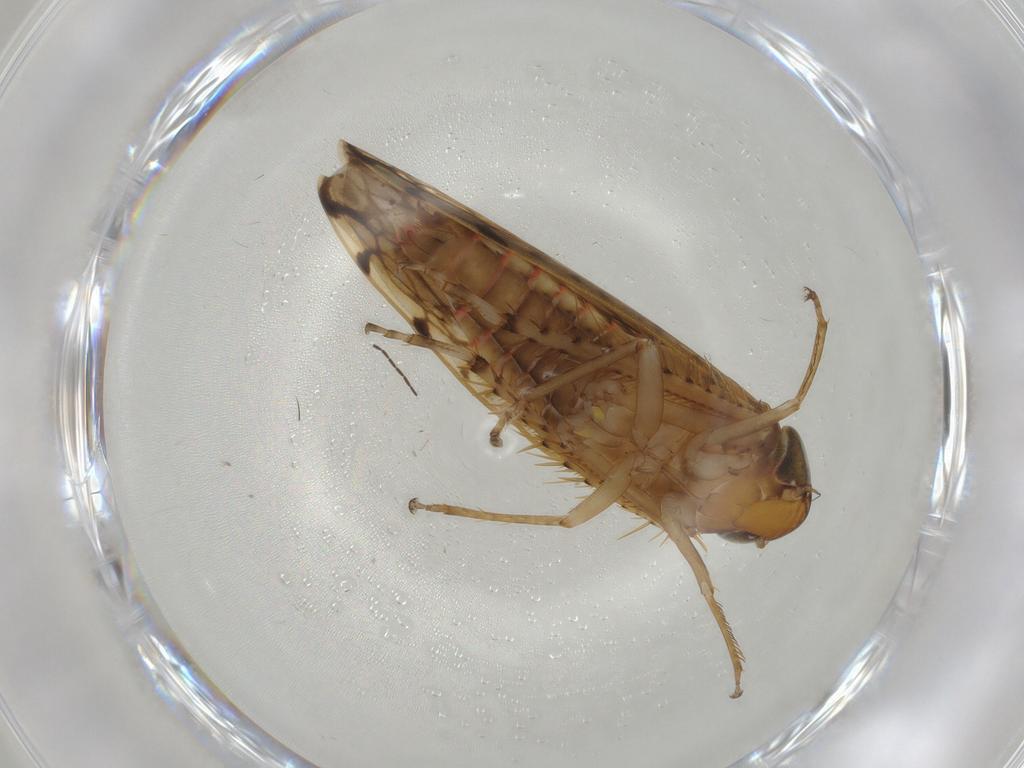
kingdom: Animalia
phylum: Arthropoda
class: Insecta
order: Hemiptera
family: Cicadellidae
